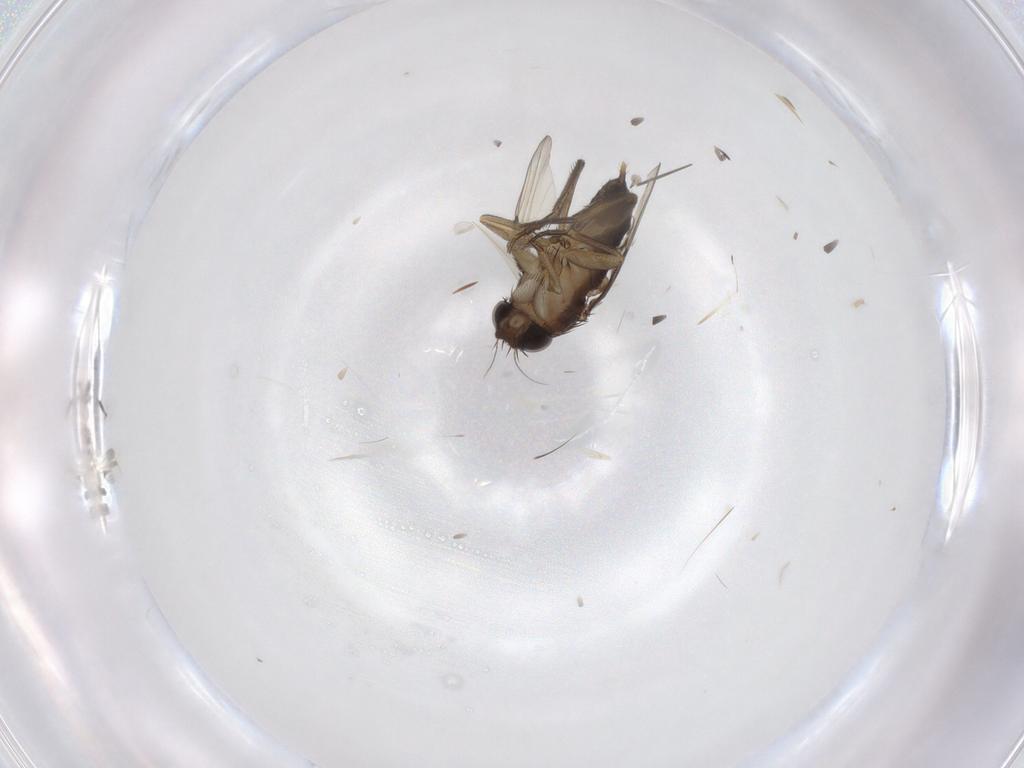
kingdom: Animalia
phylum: Arthropoda
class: Insecta
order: Diptera
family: Phoridae
